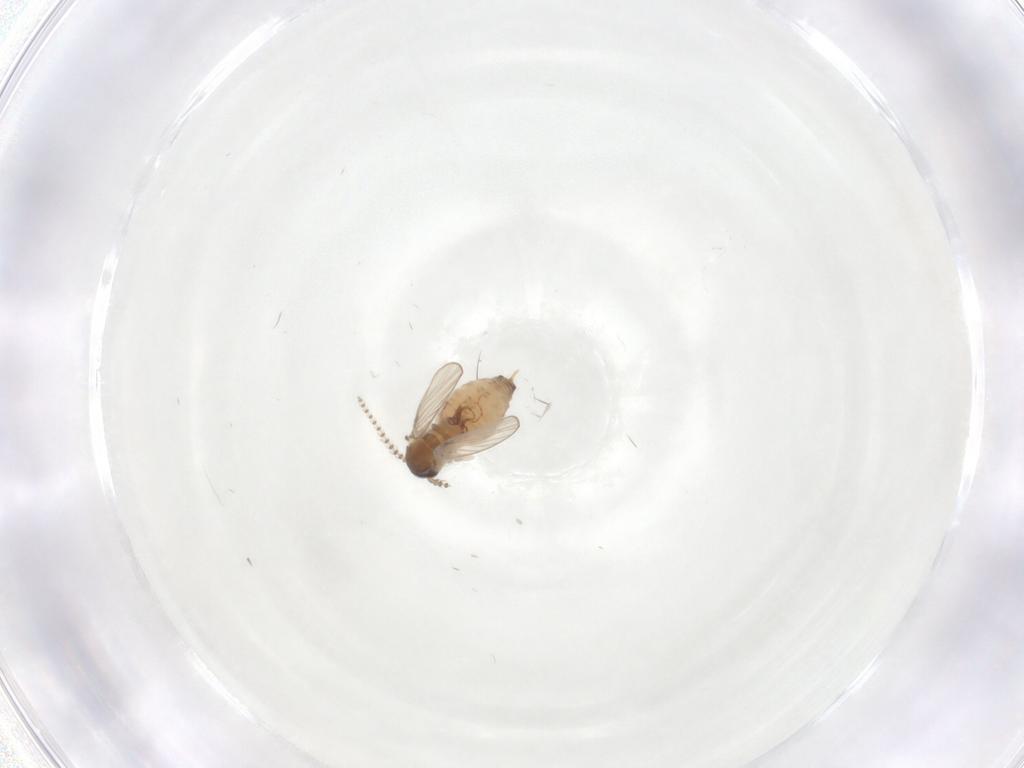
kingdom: Animalia
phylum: Arthropoda
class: Insecta
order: Diptera
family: Psychodidae
